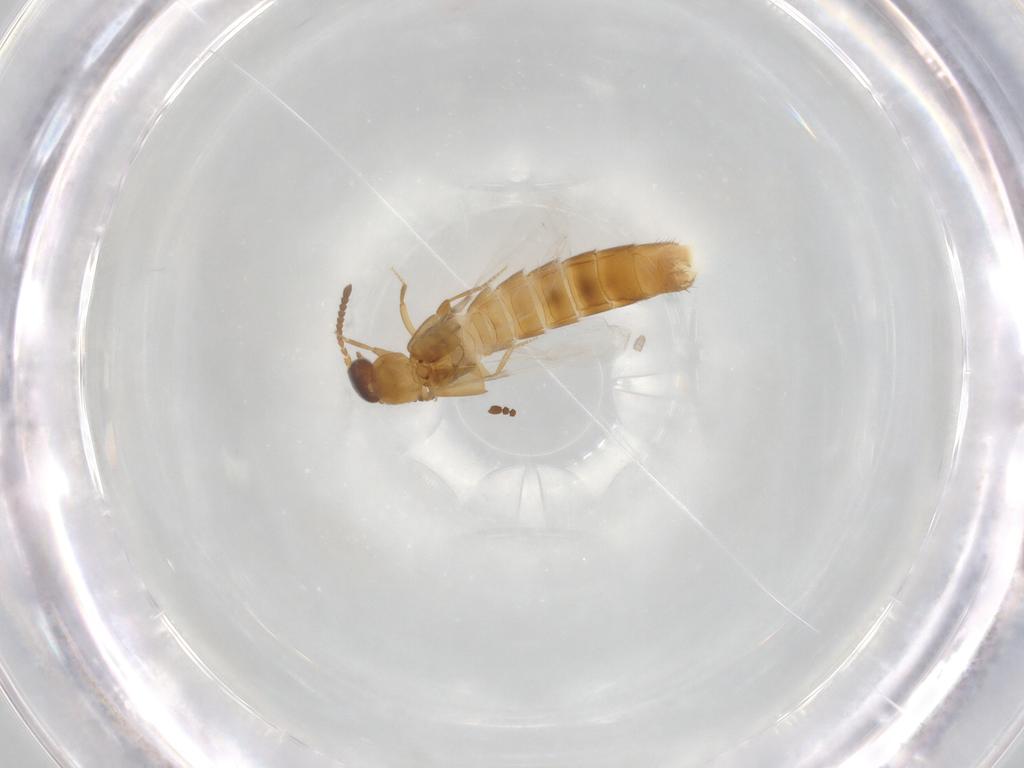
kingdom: Animalia
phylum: Arthropoda
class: Insecta
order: Coleoptera
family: Staphylinidae
